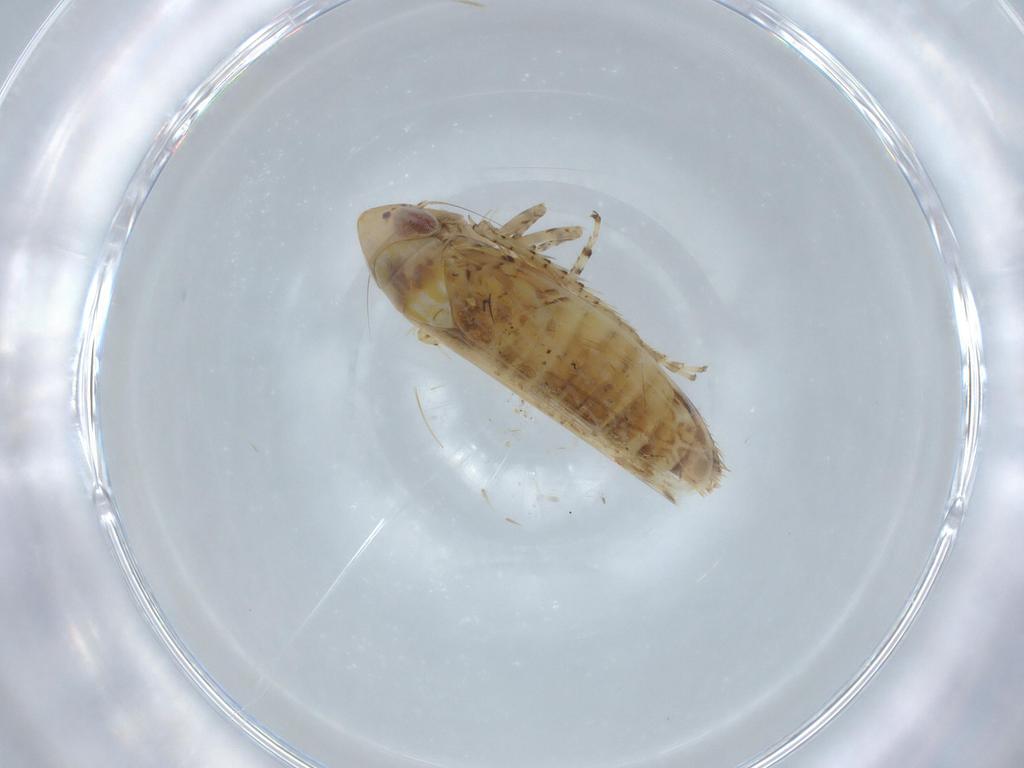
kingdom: Animalia
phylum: Arthropoda
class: Insecta
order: Hemiptera
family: Cicadellidae
